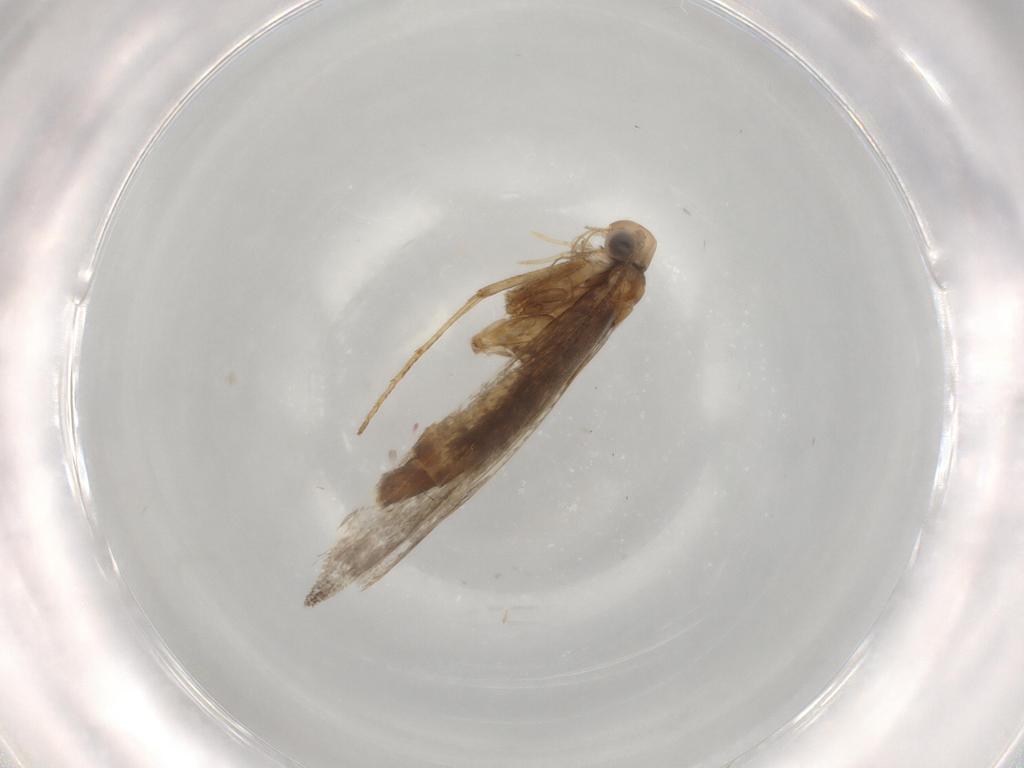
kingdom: Animalia
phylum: Arthropoda
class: Insecta
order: Lepidoptera
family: Gracillariidae
